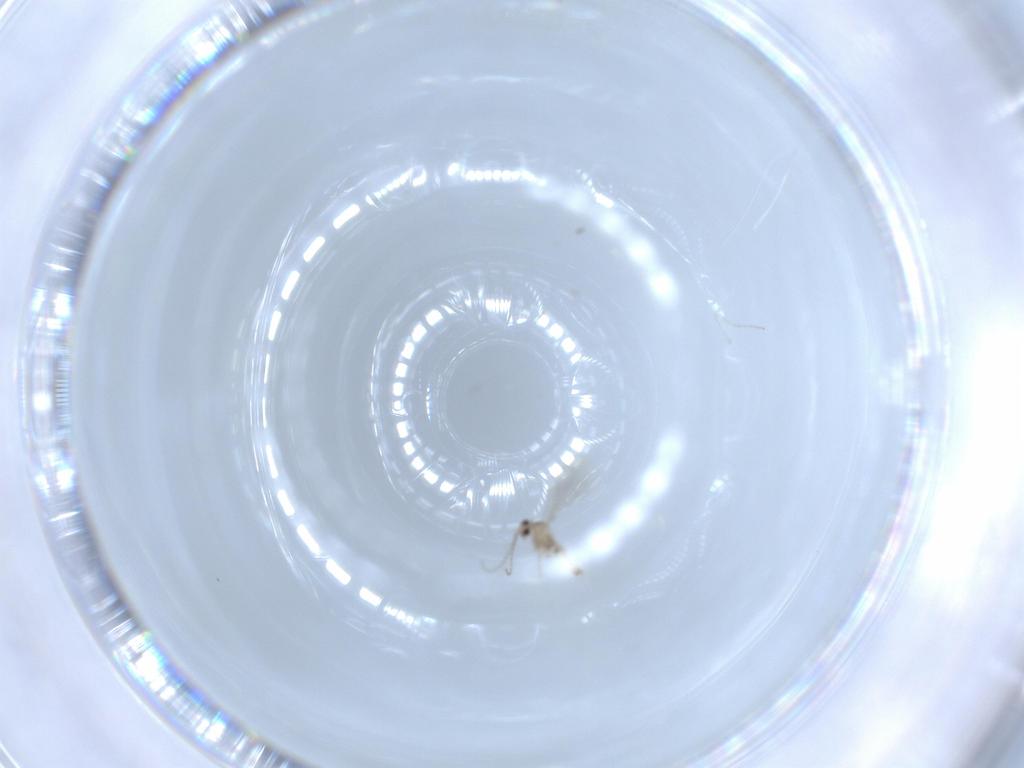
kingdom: Animalia
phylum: Arthropoda
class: Insecta
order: Diptera
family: Cecidomyiidae
